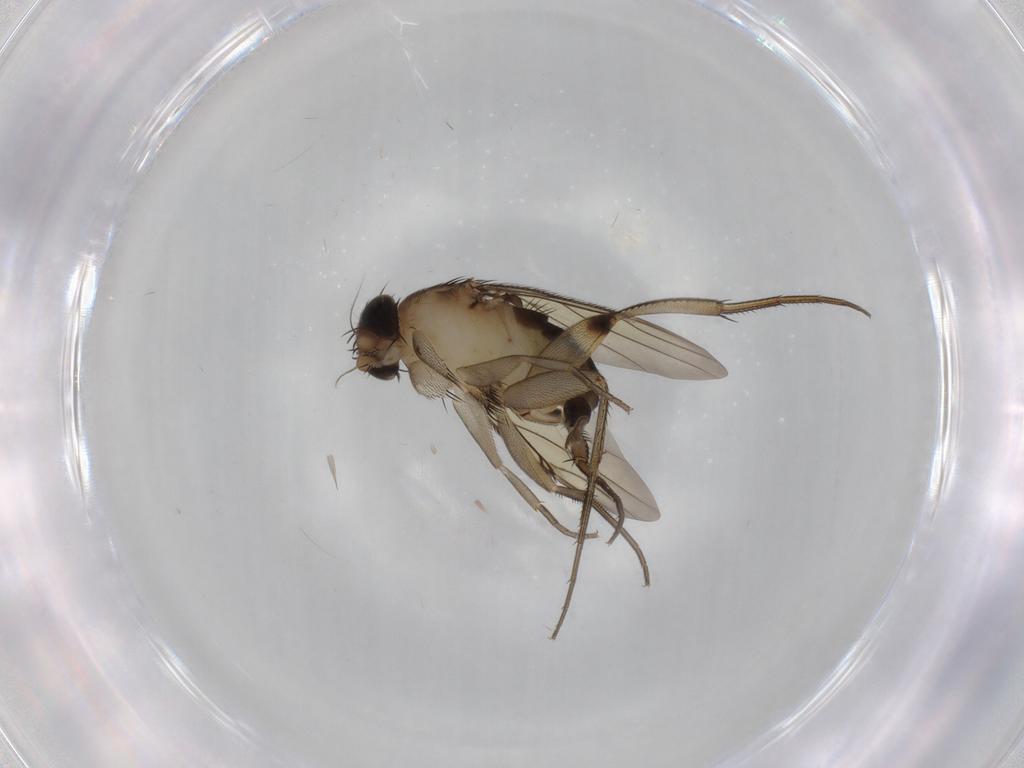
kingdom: Animalia
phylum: Arthropoda
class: Insecta
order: Diptera
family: Phoridae
